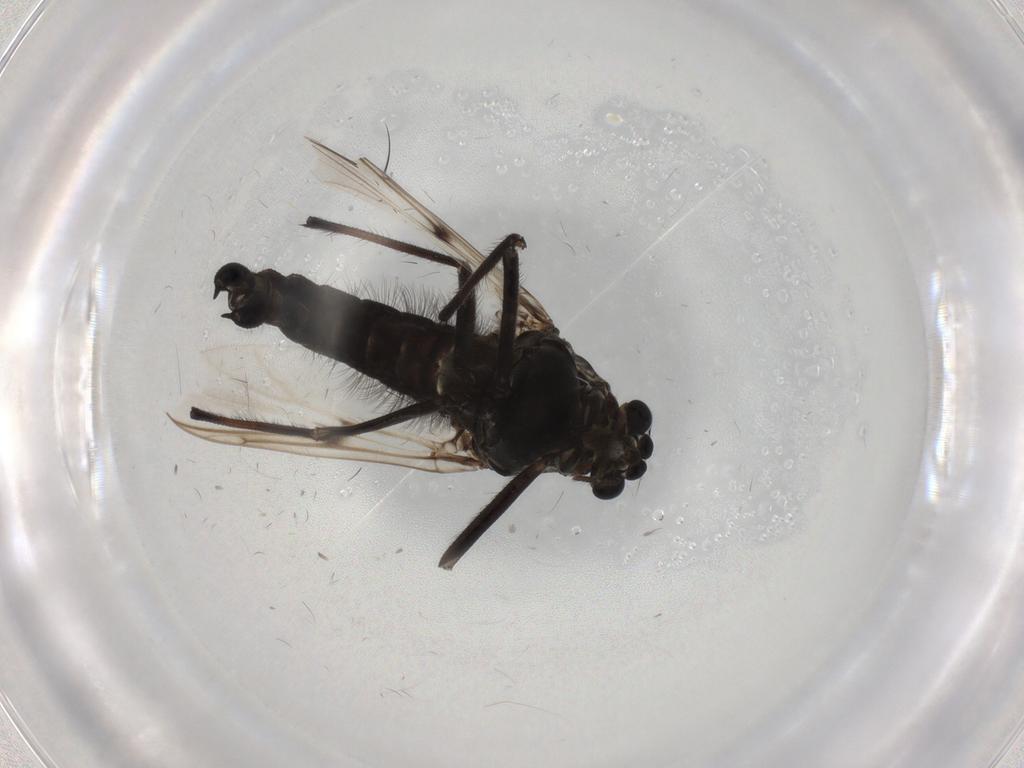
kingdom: Animalia
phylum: Arthropoda
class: Insecta
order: Diptera
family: Chironomidae
